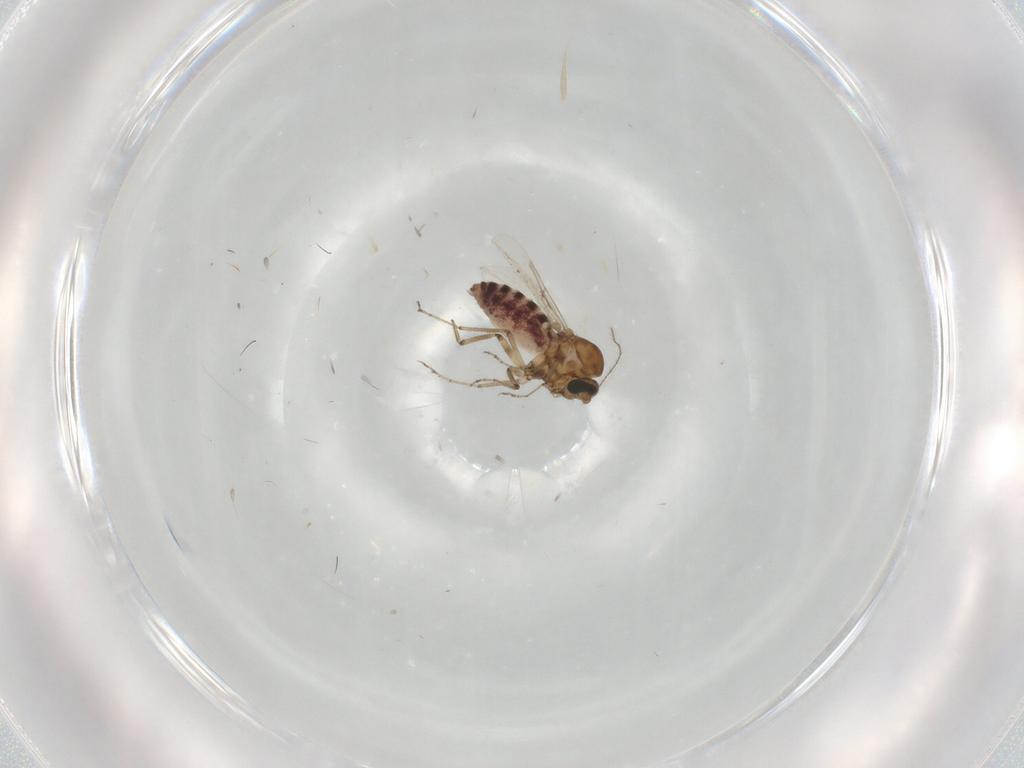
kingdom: Animalia
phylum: Arthropoda
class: Insecta
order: Diptera
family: Ceratopogonidae
